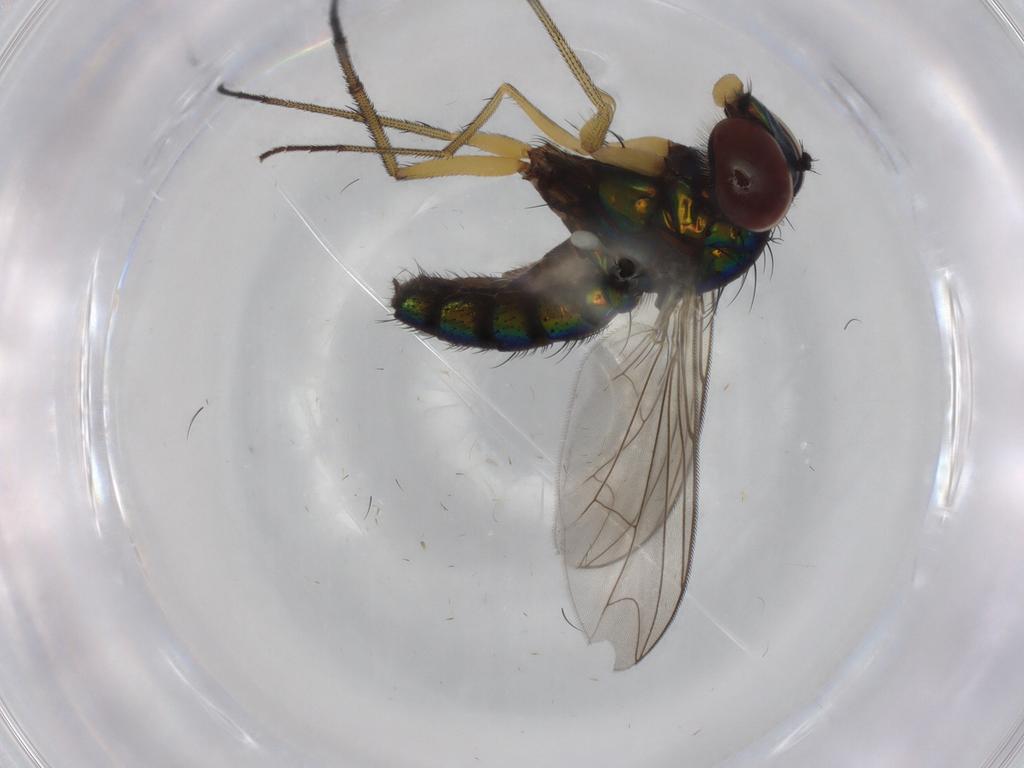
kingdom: Animalia
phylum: Arthropoda
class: Insecta
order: Diptera
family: Dolichopodidae
